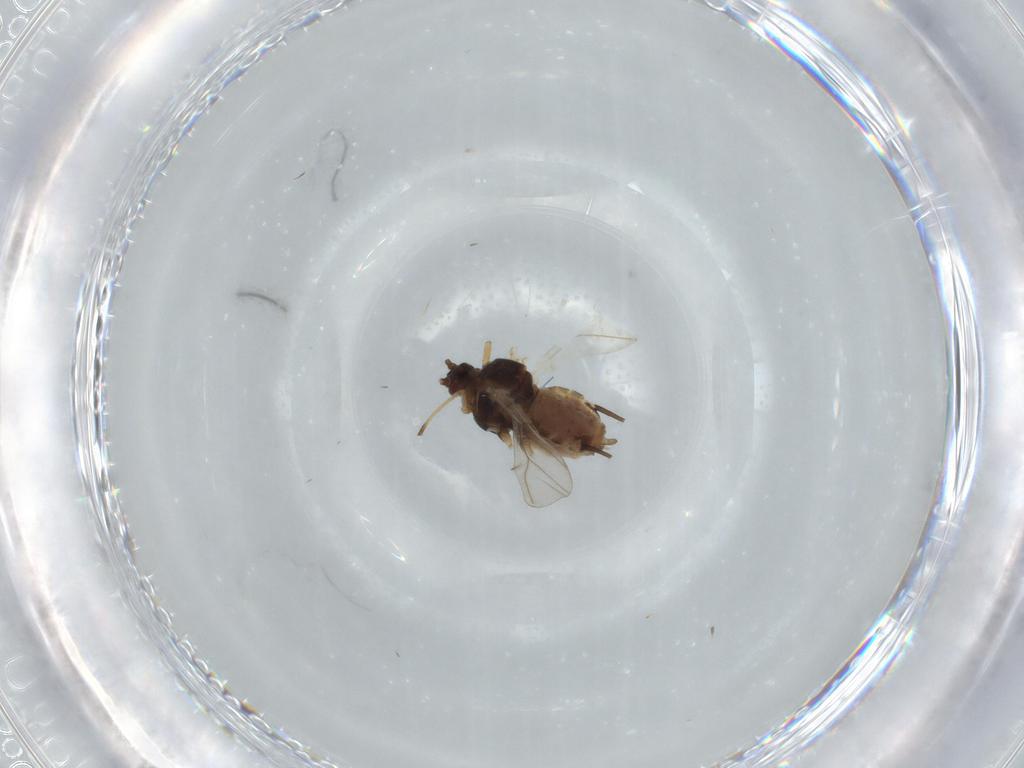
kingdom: Animalia
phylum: Arthropoda
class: Insecta
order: Hemiptera
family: Aphididae
